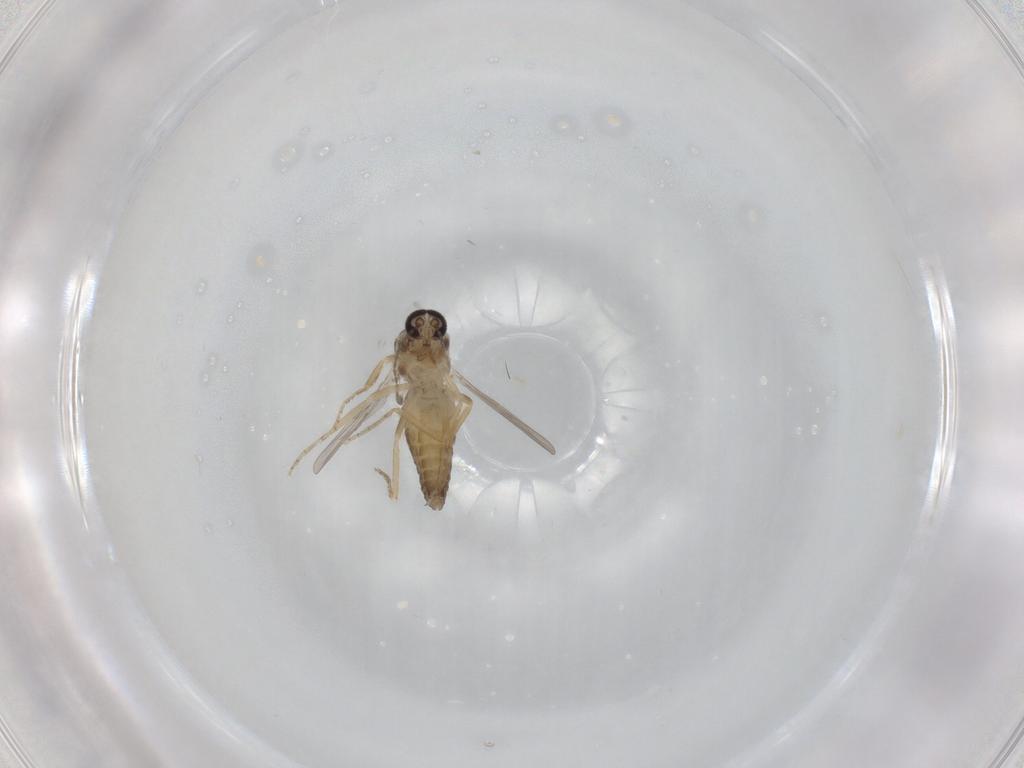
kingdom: Animalia
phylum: Arthropoda
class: Insecta
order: Diptera
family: Ceratopogonidae
